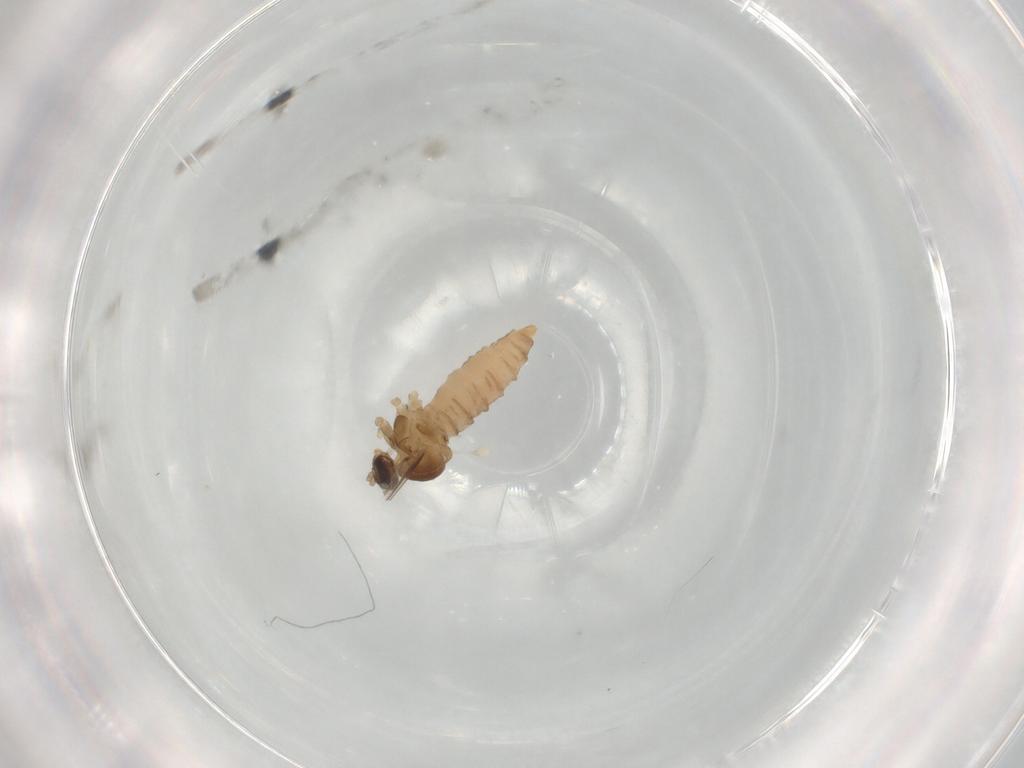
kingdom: Animalia
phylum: Arthropoda
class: Insecta
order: Diptera
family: Cecidomyiidae
